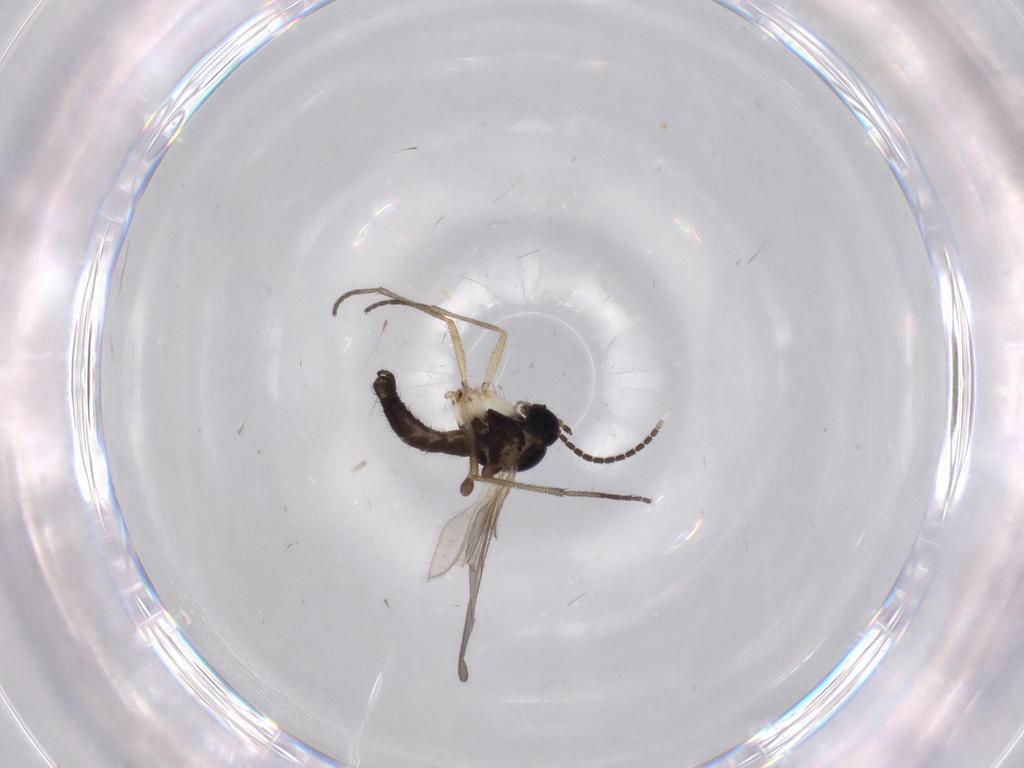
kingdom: Animalia
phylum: Arthropoda
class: Insecta
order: Diptera
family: Sciaridae
